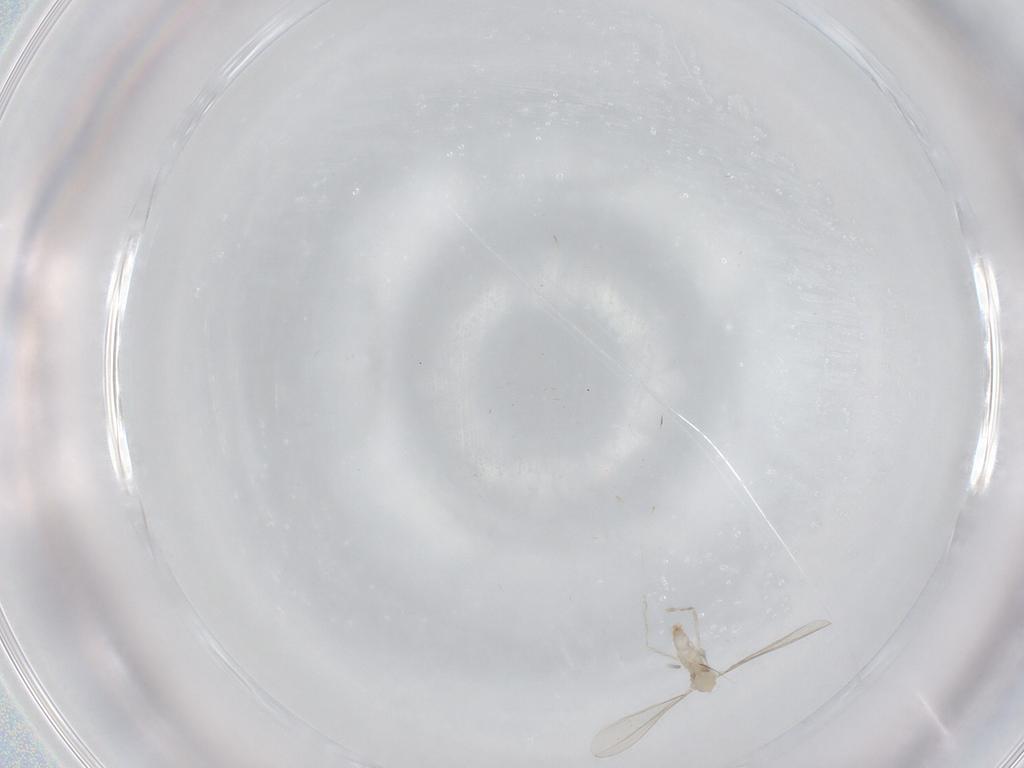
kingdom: Animalia
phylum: Arthropoda
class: Insecta
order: Diptera
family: Cecidomyiidae
